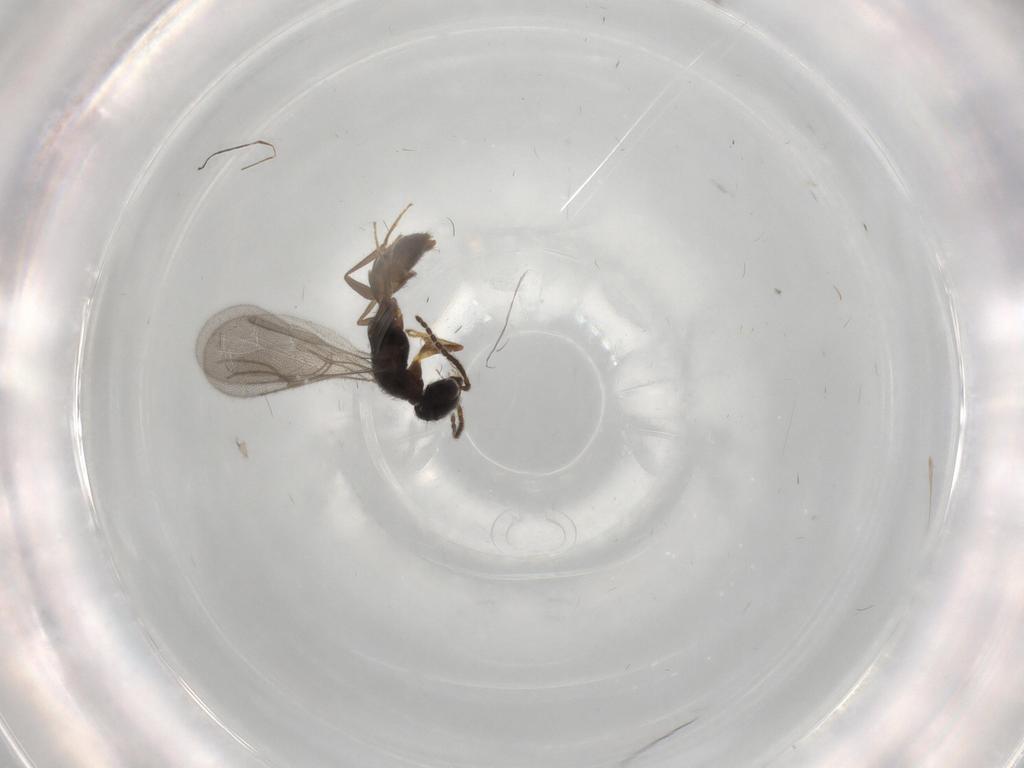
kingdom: Animalia
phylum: Arthropoda
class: Insecta
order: Hymenoptera
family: Bethylidae
